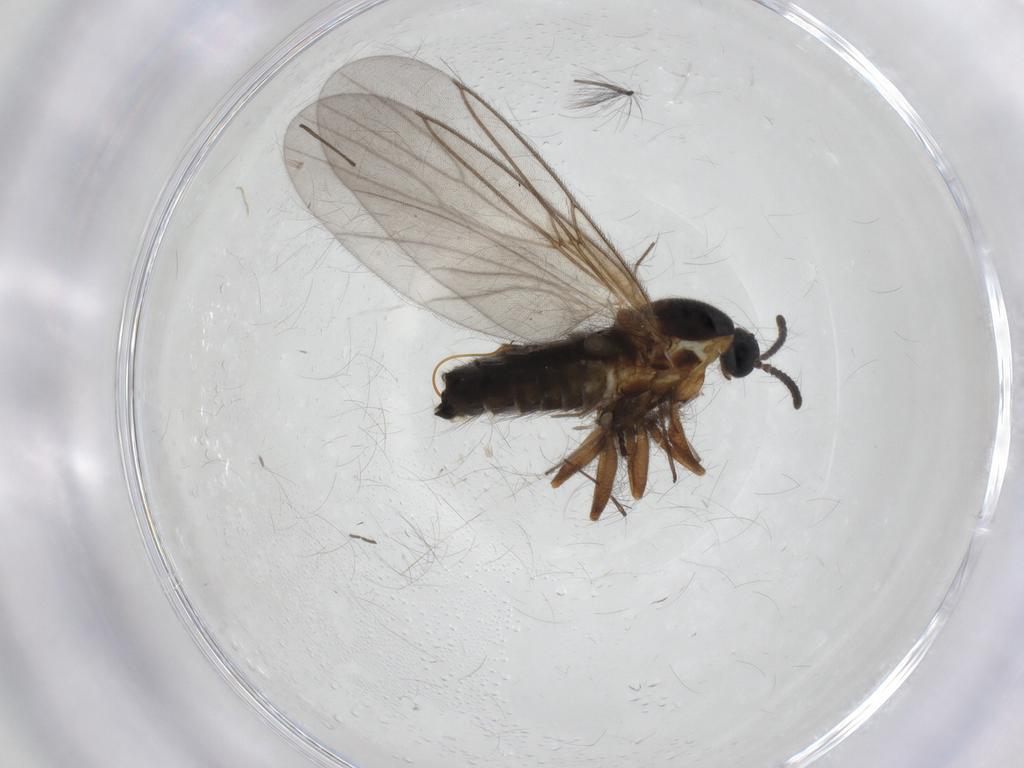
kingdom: Animalia
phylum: Arthropoda
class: Insecta
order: Diptera
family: Scatopsidae
